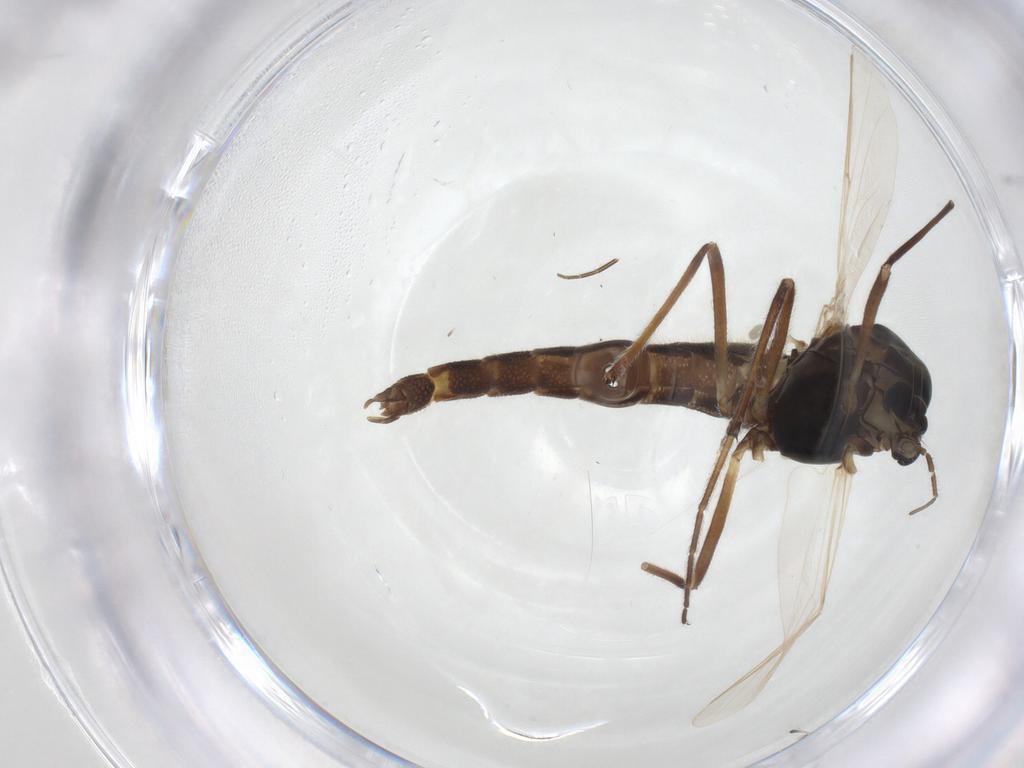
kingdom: Animalia
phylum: Arthropoda
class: Insecta
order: Diptera
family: Chironomidae
